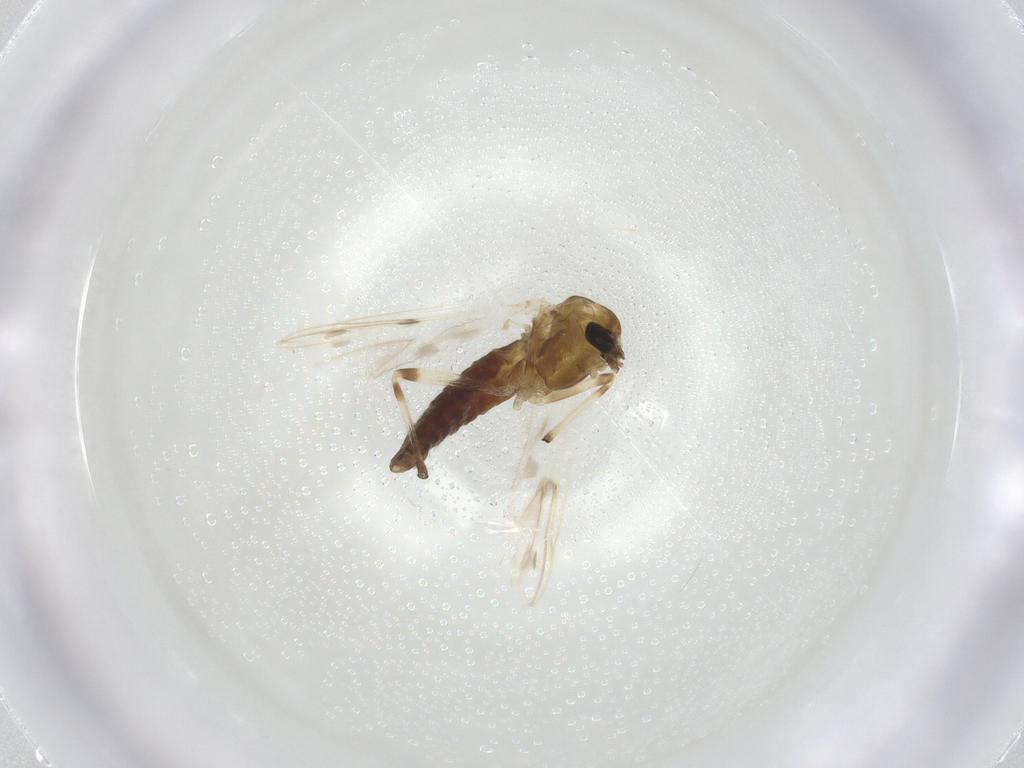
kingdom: Animalia
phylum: Arthropoda
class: Insecta
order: Diptera
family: Chironomidae
